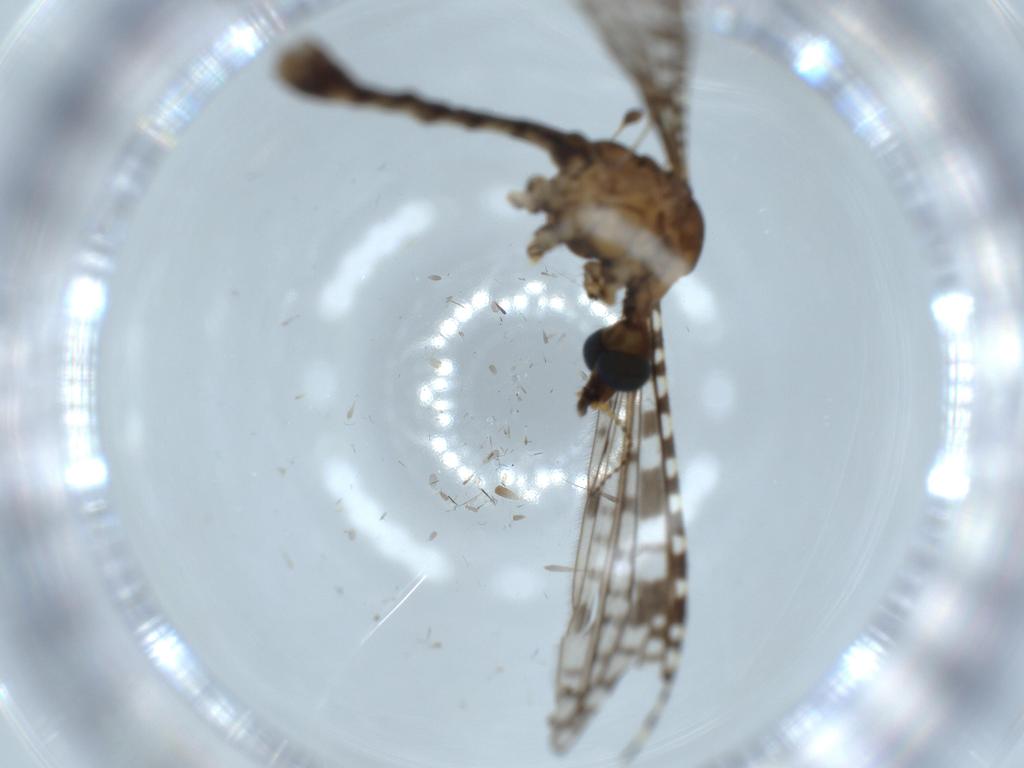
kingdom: Animalia
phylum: Arthropoda
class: Insecta
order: Diptera
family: Limoniidae
